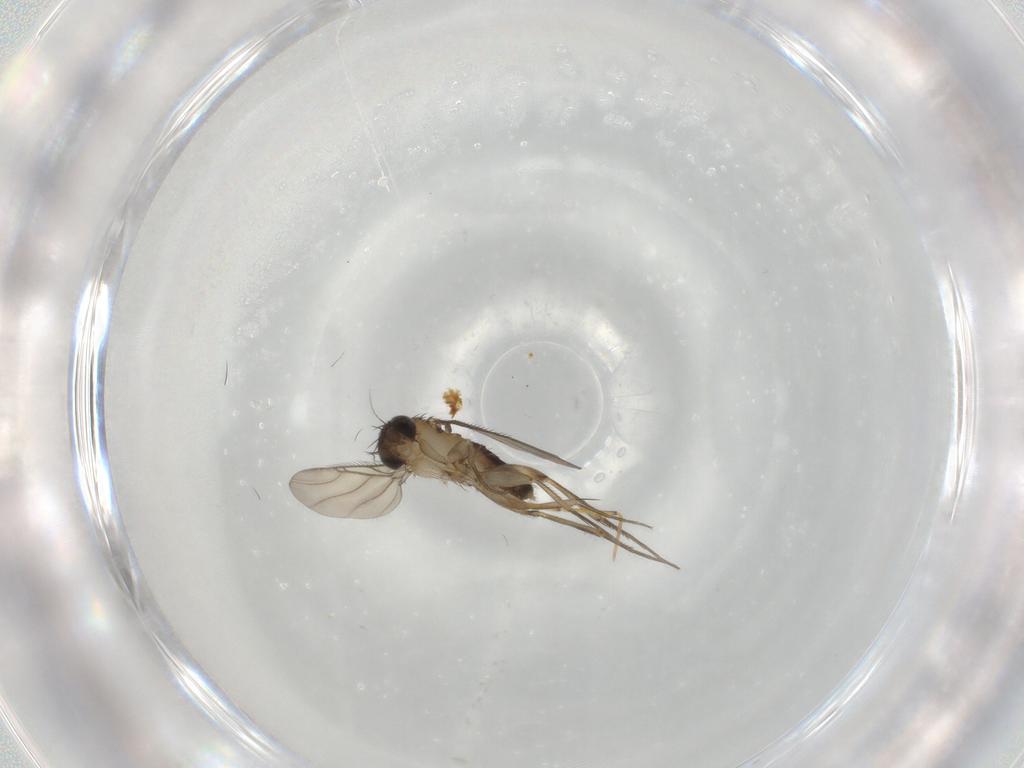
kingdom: Animalia
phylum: Arthropoda
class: Insecta
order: Diptera
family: Phoridae
